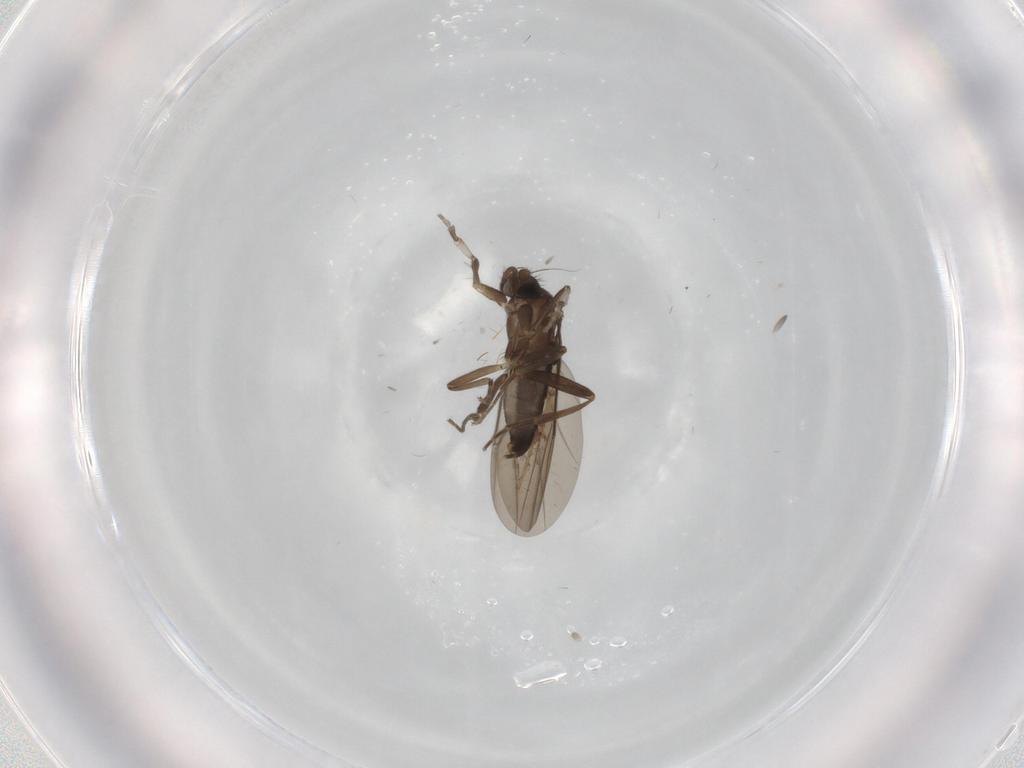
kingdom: Animalia
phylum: Arthropoda
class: Insecta
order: Diptera
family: Phoridae
